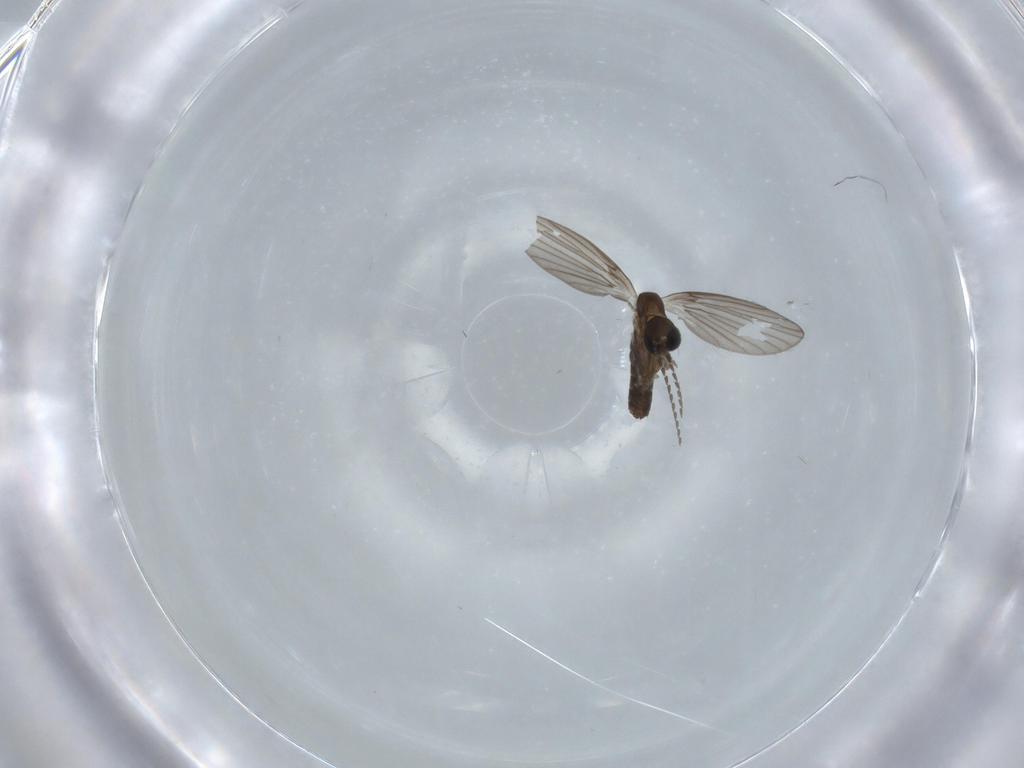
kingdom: Animalia
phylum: Arthropoda
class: Insecta
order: Diptera
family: Psychodidae
